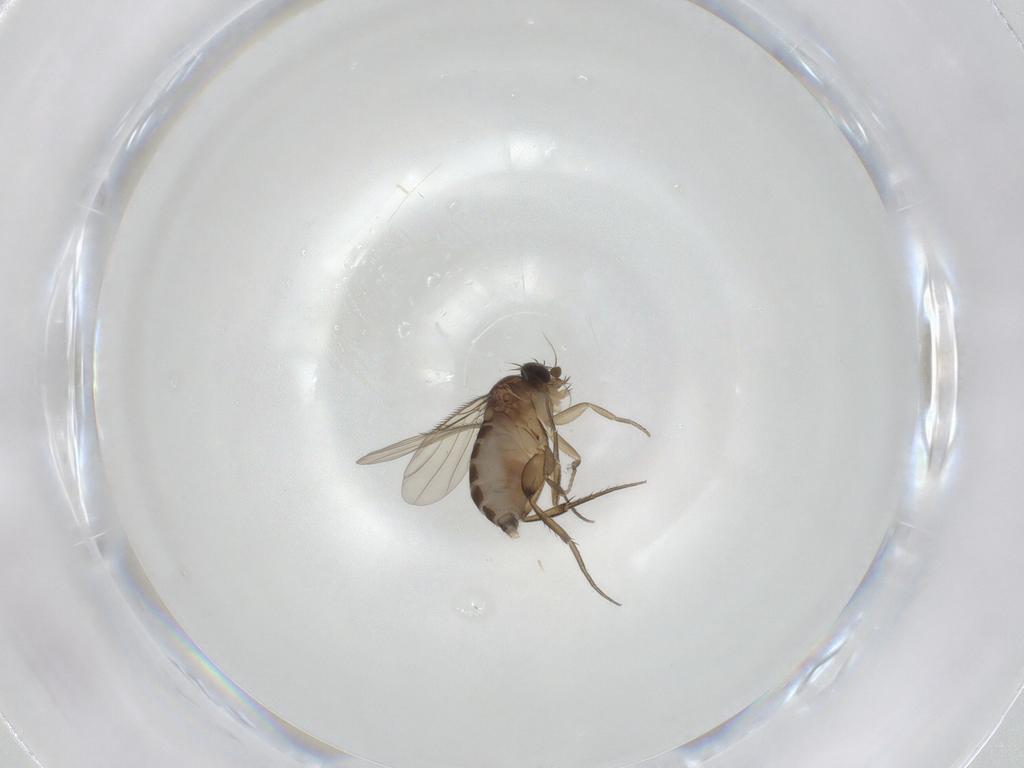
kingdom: Animalia
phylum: Arthropoda
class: Insecta
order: Diptera
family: Phoridae
